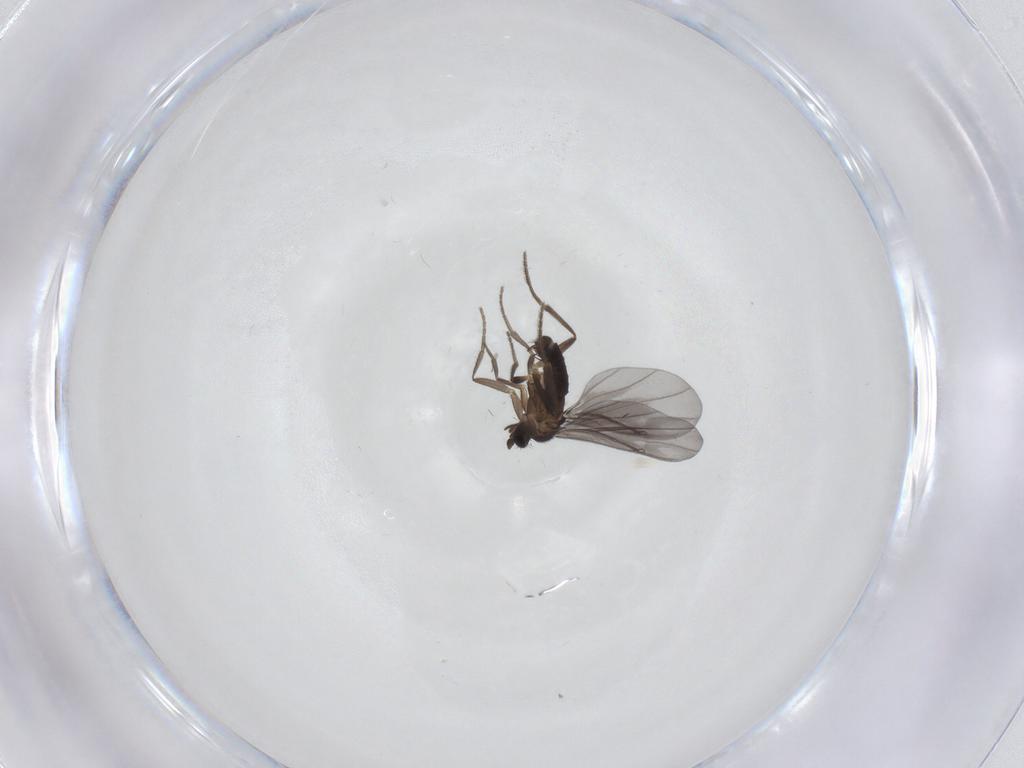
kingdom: Animalia
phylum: Arthropoda
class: Insecta
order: Diptera
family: Phoridae
